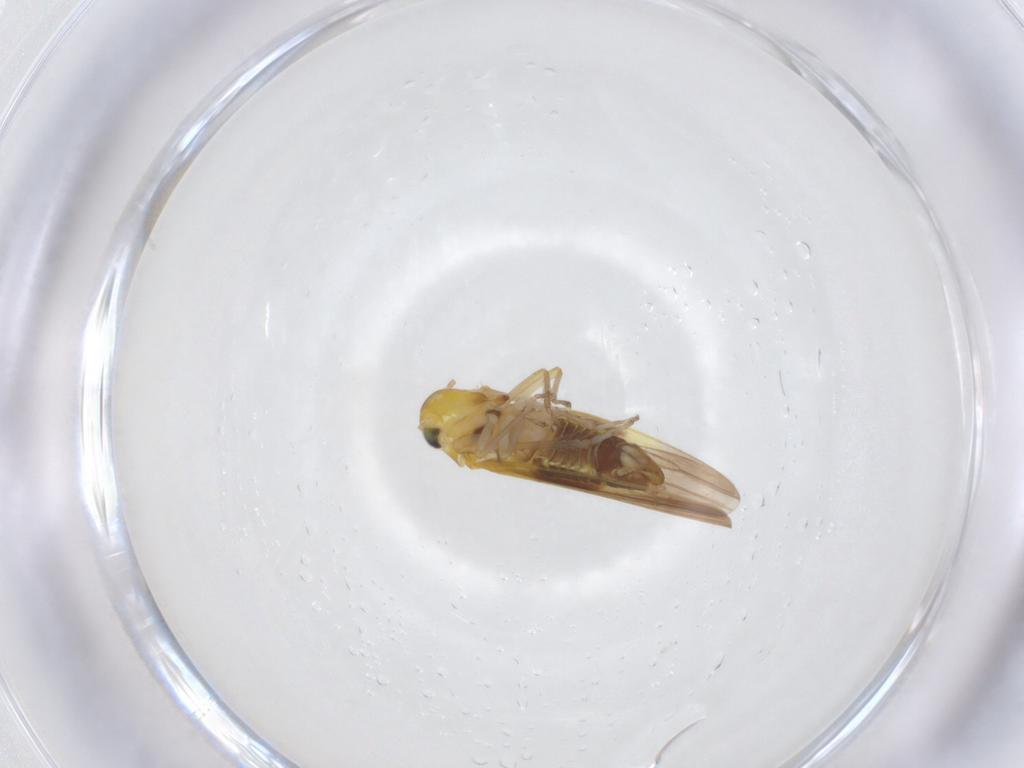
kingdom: Animalia
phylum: Arthropoda
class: Insecta
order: Hemiptera
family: Cicadellidae
